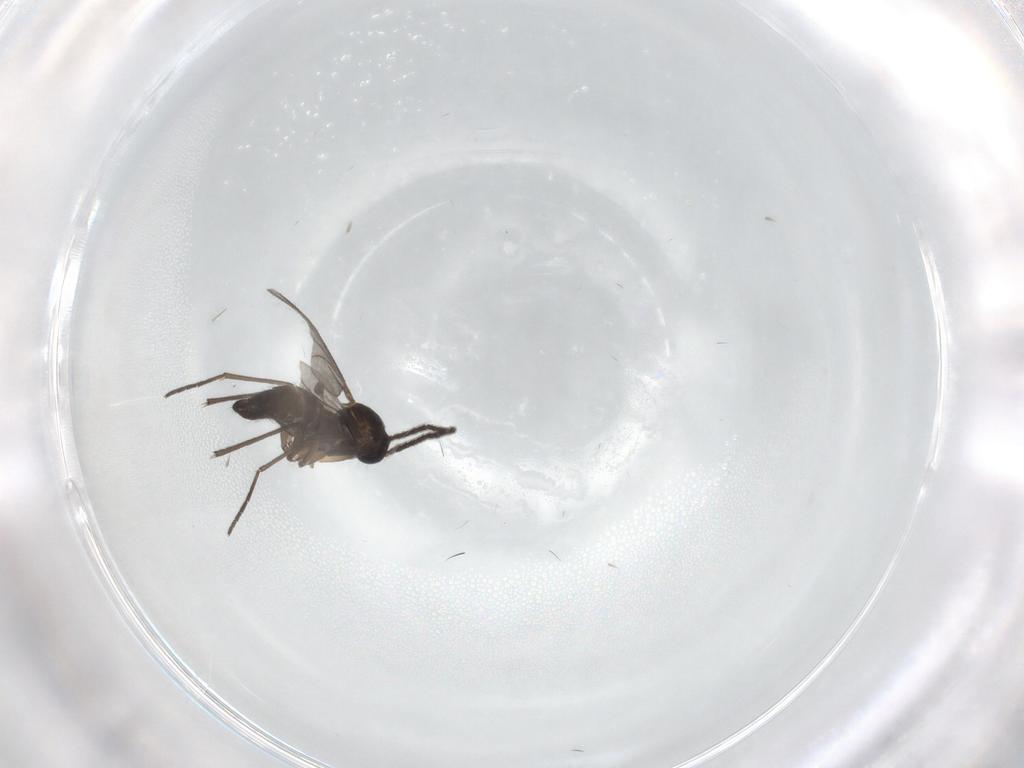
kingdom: Animalia
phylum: Arthropoda
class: Insecta
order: Diptera
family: Sciaridae
